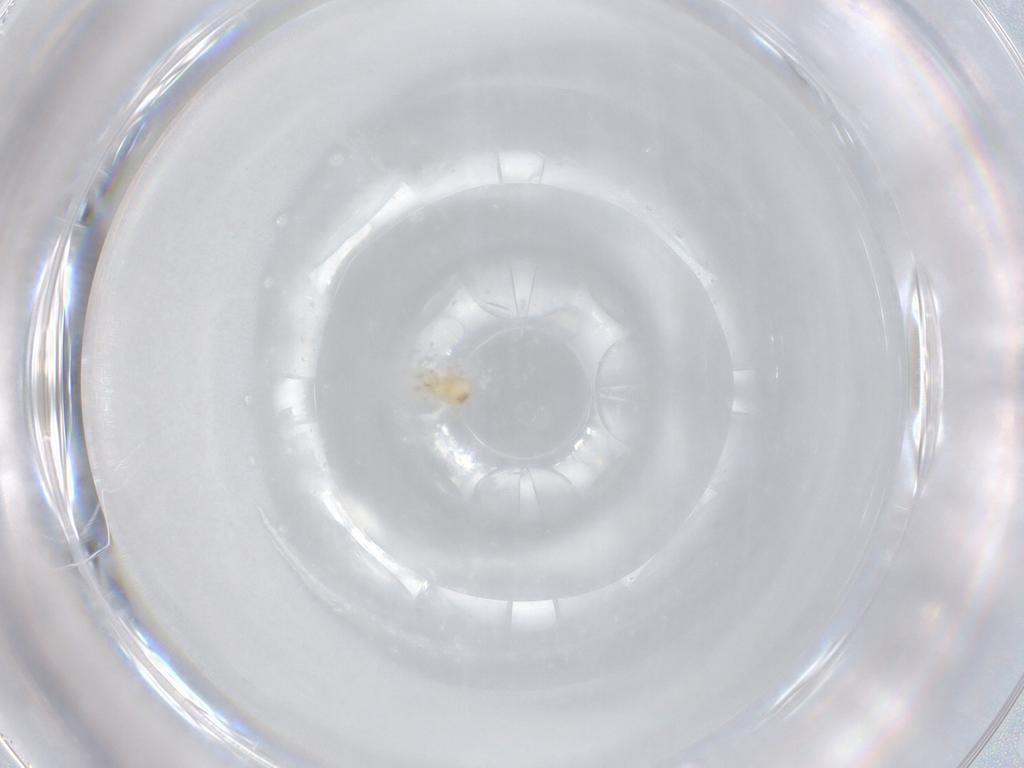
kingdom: Animalia
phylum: Arthropoda
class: Arachnida
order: Mesostigmata
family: Phytoseiidae
